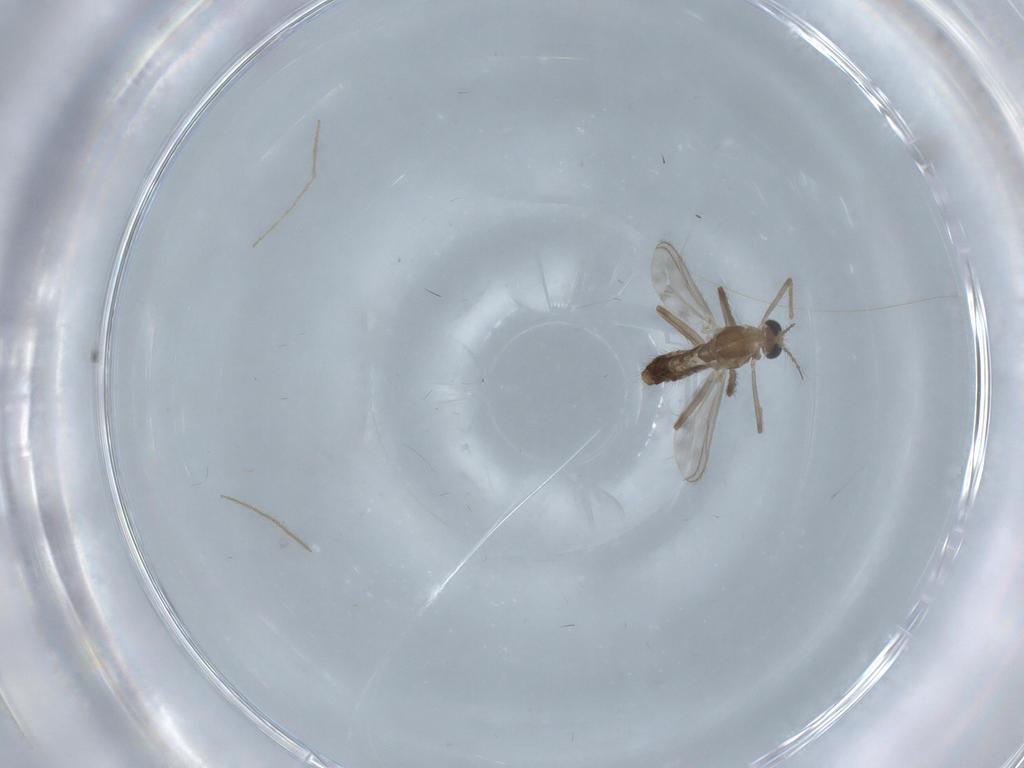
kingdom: Animalia
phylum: Arthropoda
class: Insecta
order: Diptera
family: Chironomidae
